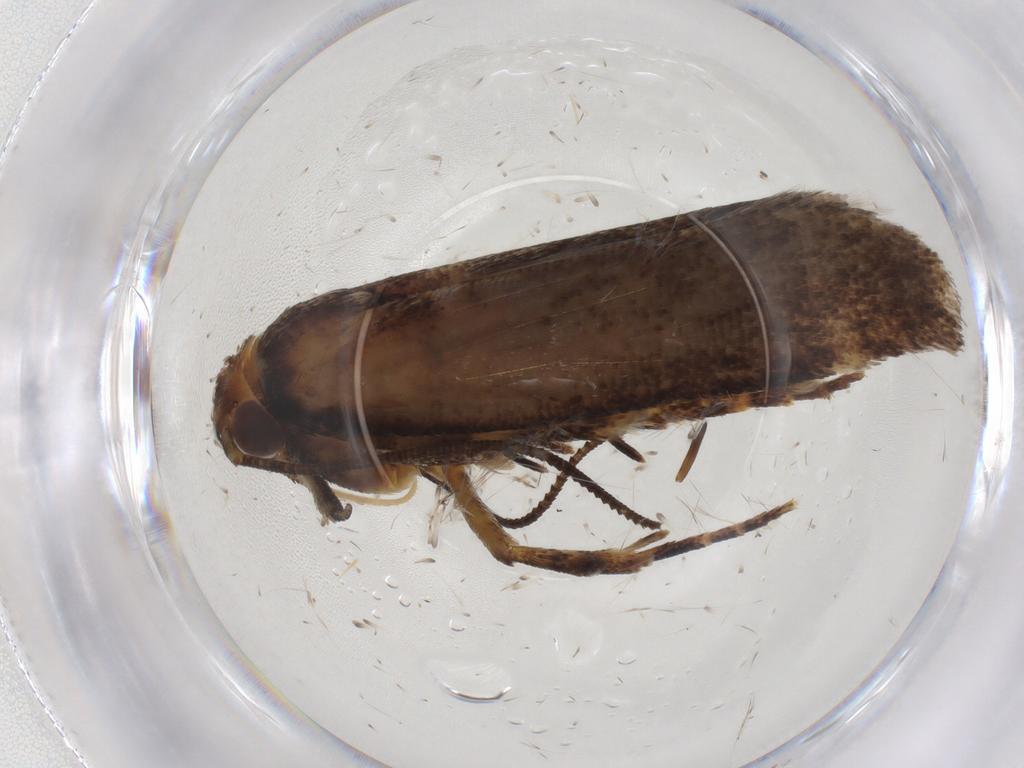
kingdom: Animalia
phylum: Arthropoda
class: Insecta
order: Lepidoptera
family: Gelechiidae
